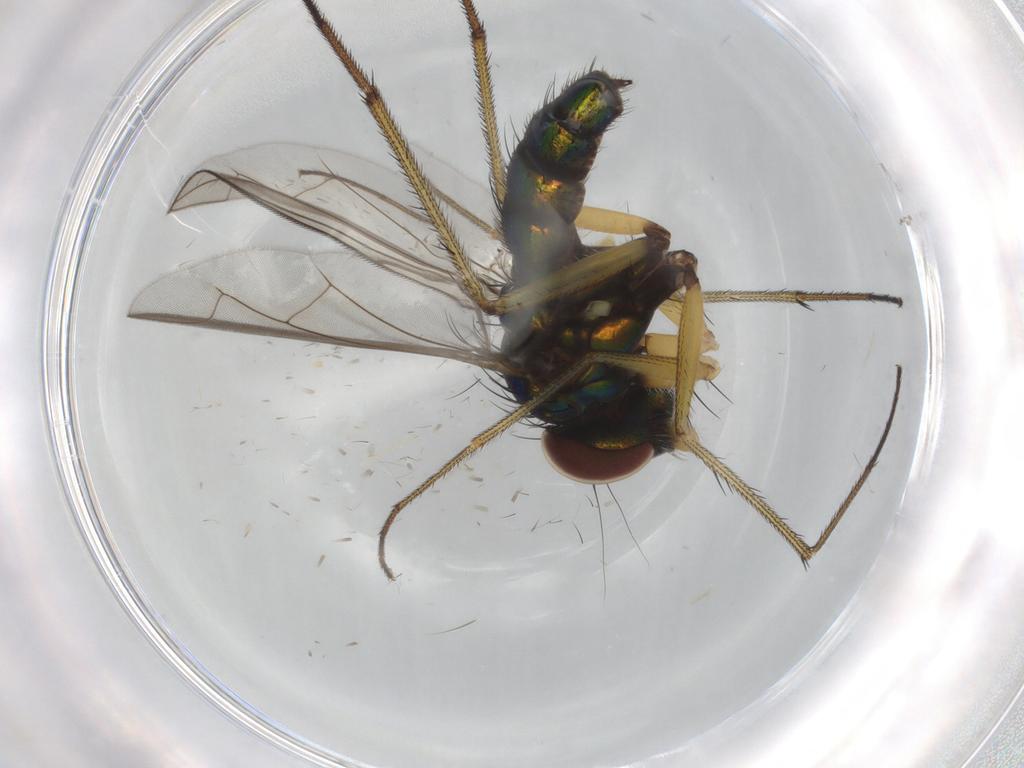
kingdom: Animalia
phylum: Arthropoda
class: Insecta
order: Diptera
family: Dolichopodidae
